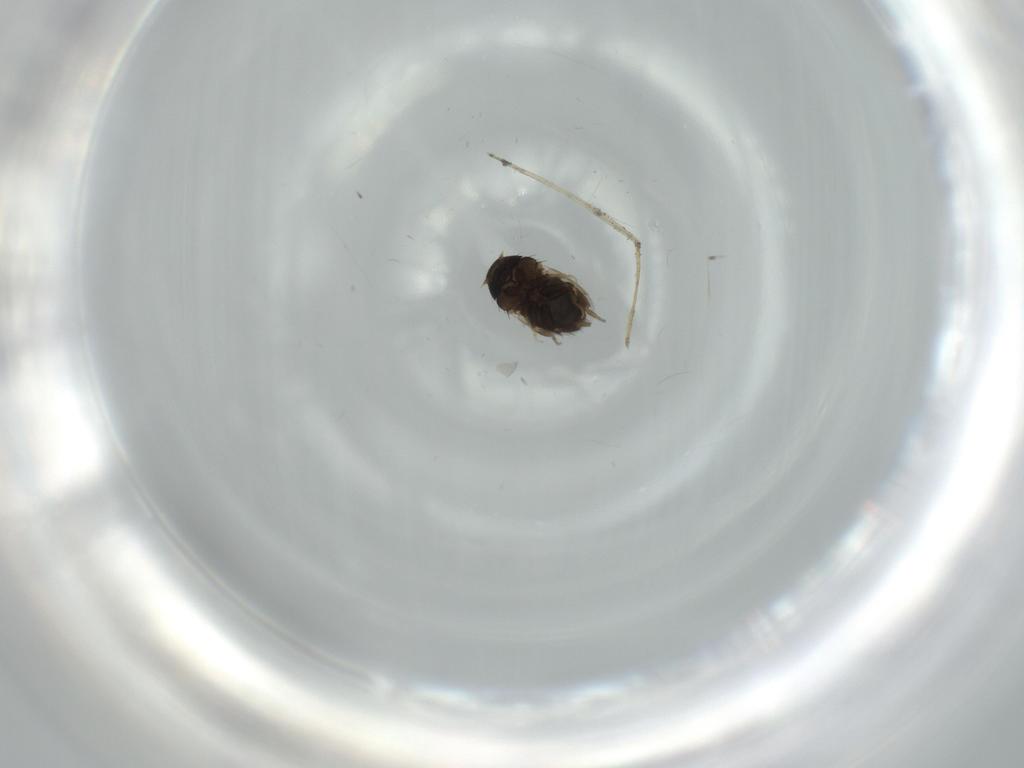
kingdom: Animalia
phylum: Arthropoda
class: Insecta
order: Diptera
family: Phoridae
